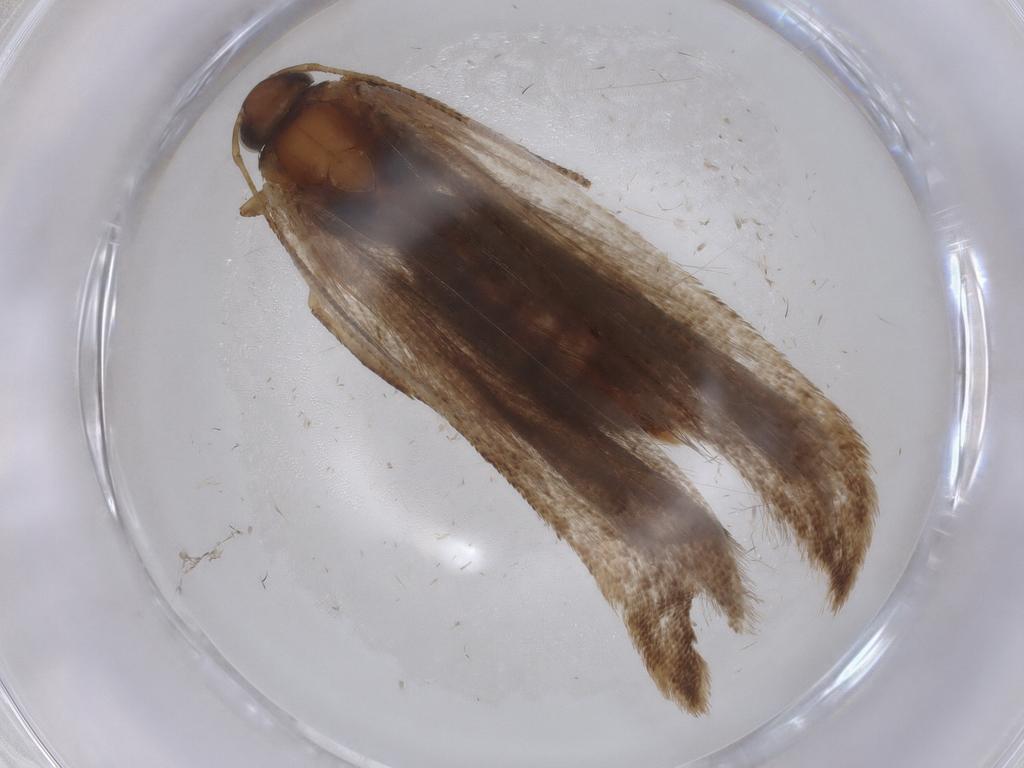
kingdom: Animalia
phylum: Arthropoda
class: Insecta
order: Lepidoptera
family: Gelechiidae
